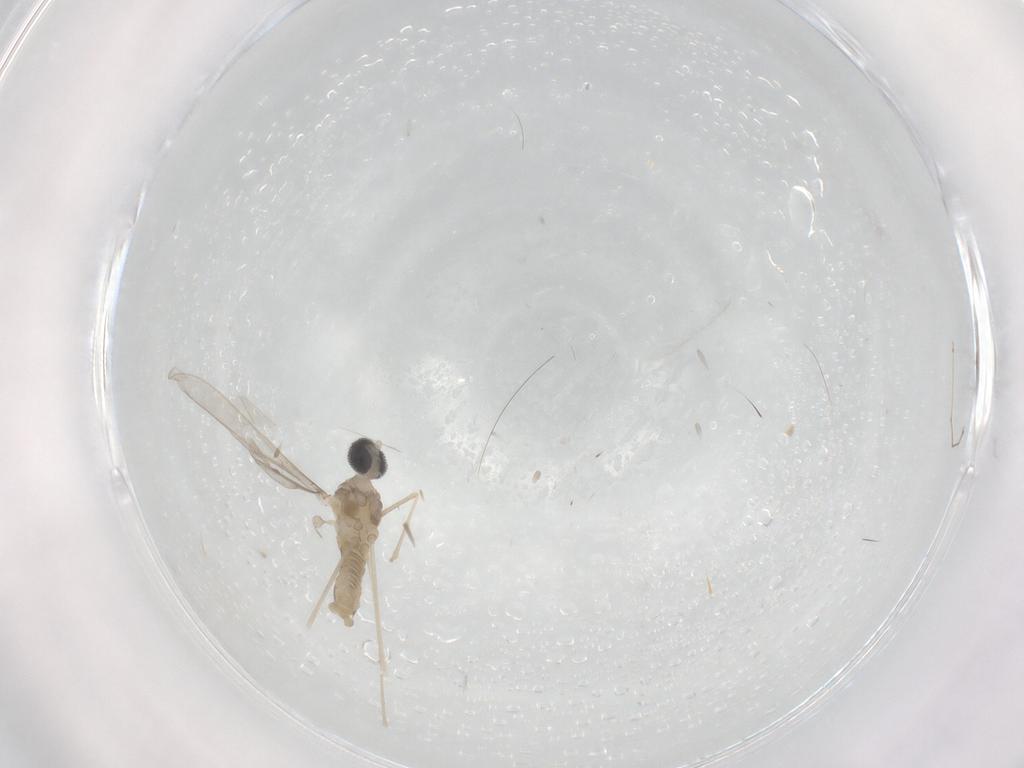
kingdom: Animalia
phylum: Arthropoda
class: Insecta
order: Diptera
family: Cecidomyiidae
